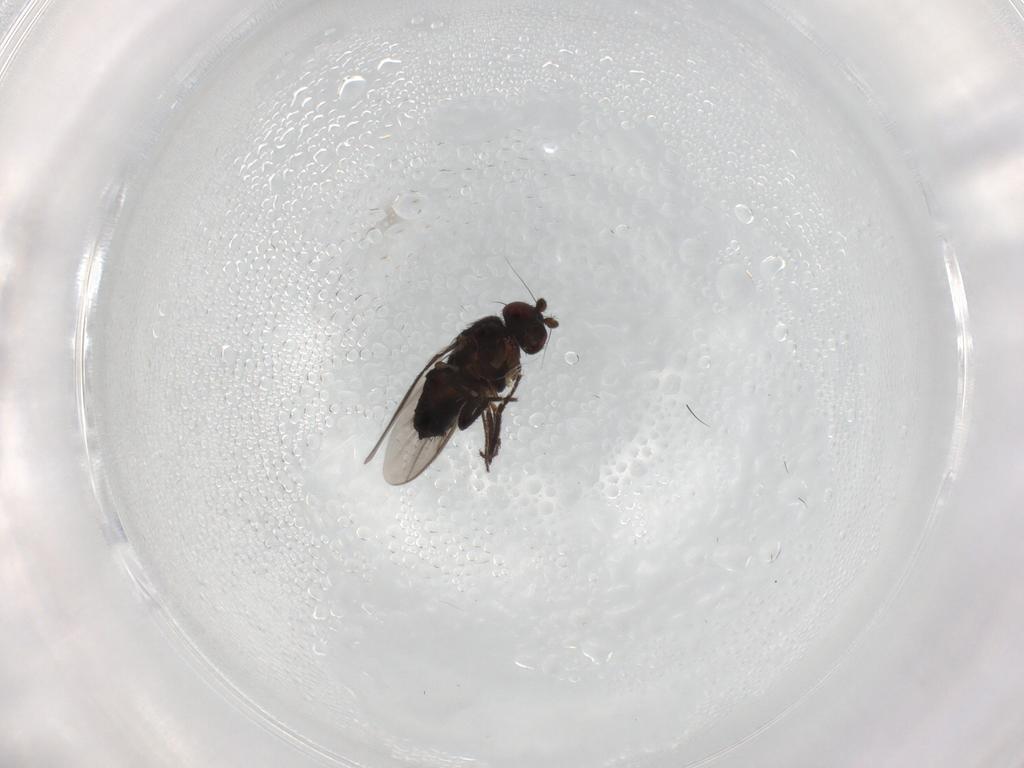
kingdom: Animalia
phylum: Arthropoda
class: Insecta
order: Diptera
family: Sphaeroceridae
